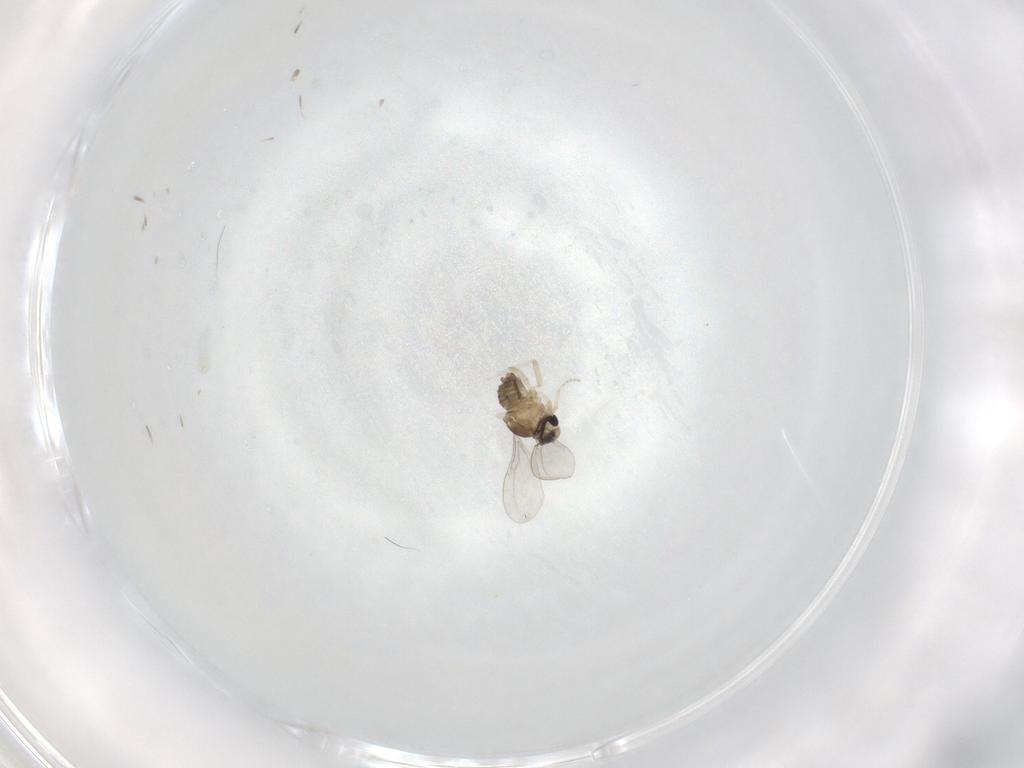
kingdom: Animalia
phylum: Arthropoda
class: Insecta
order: Diptera
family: Cecidomyiidae
